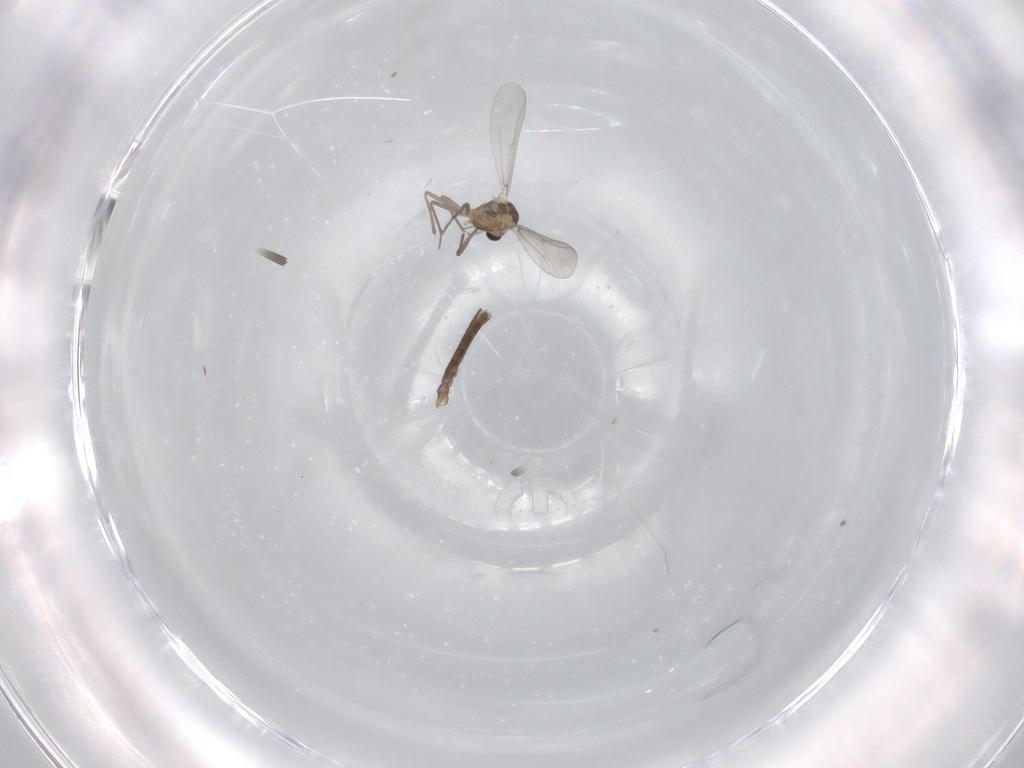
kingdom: Animalia
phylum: Arthropoda
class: Insecta
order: Diptera
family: Chironomidae
